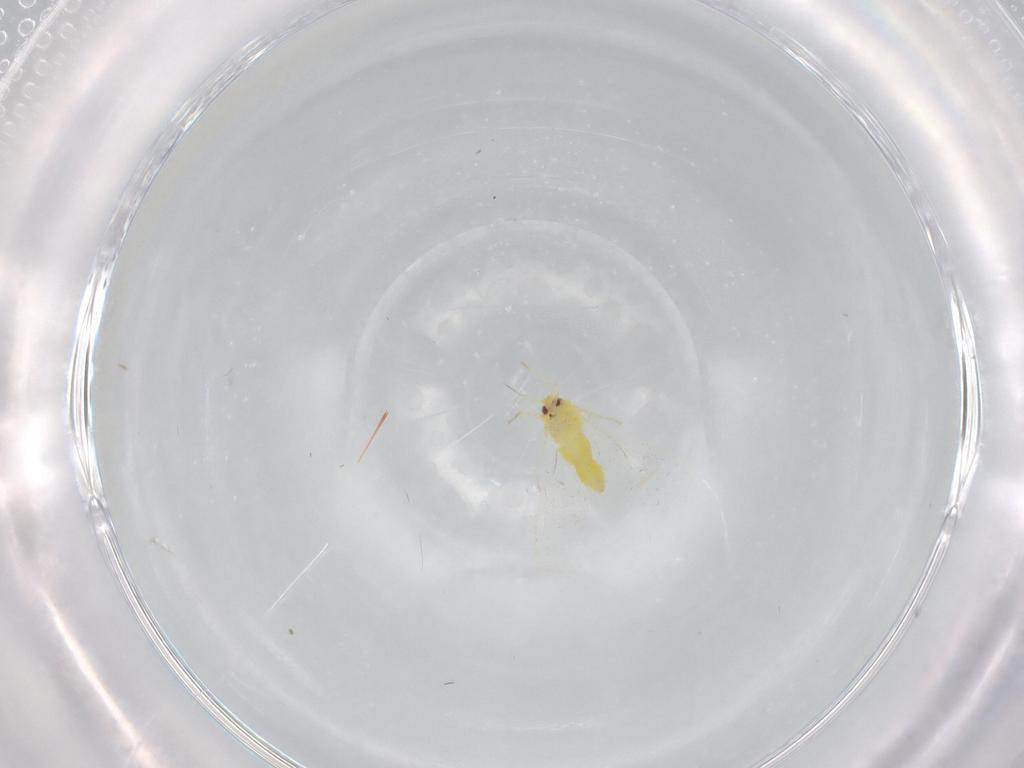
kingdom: Animalia
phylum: Arthropoda
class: Insecta
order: Hemiptera
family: Aleyrodidae
